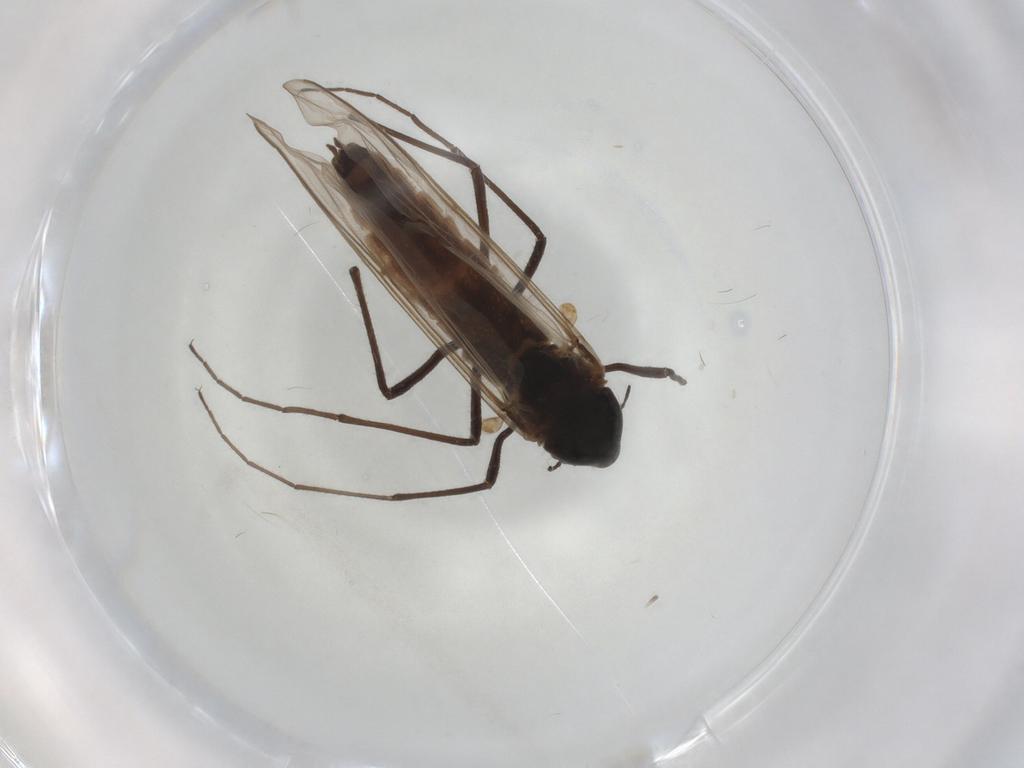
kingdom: Animalia
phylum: Arthropoda
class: Insecta
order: Diptera
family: Chironomidae
